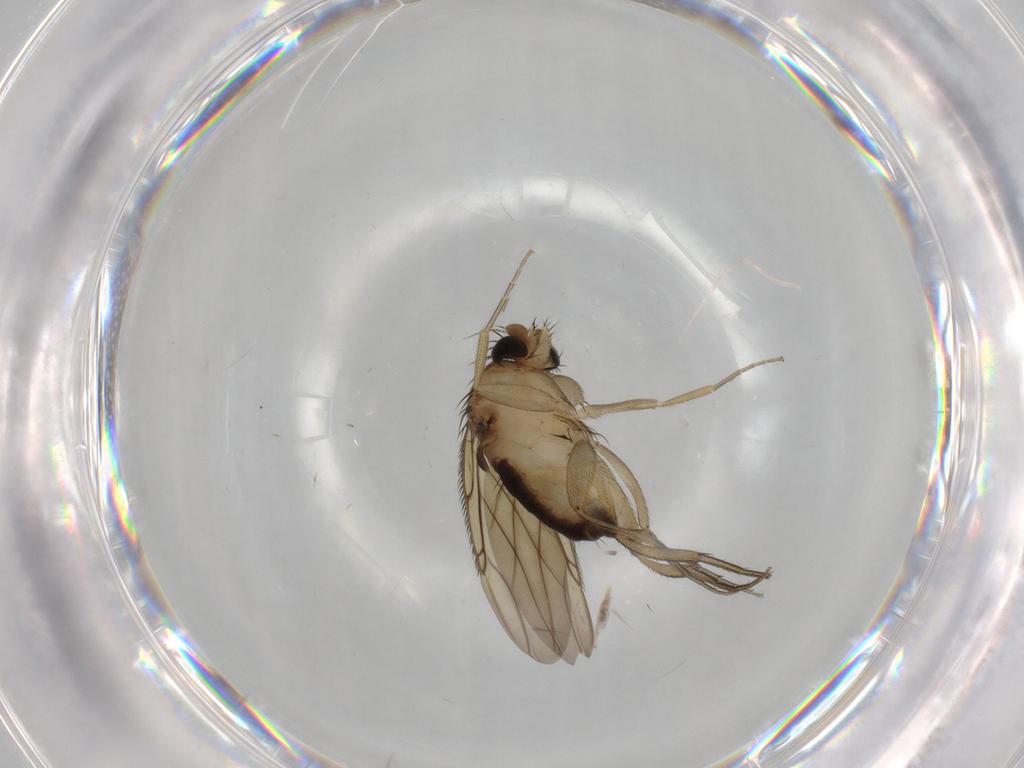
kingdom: Animalia
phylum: Arthropoda
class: Insecta
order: Diptera
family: Phoridae
